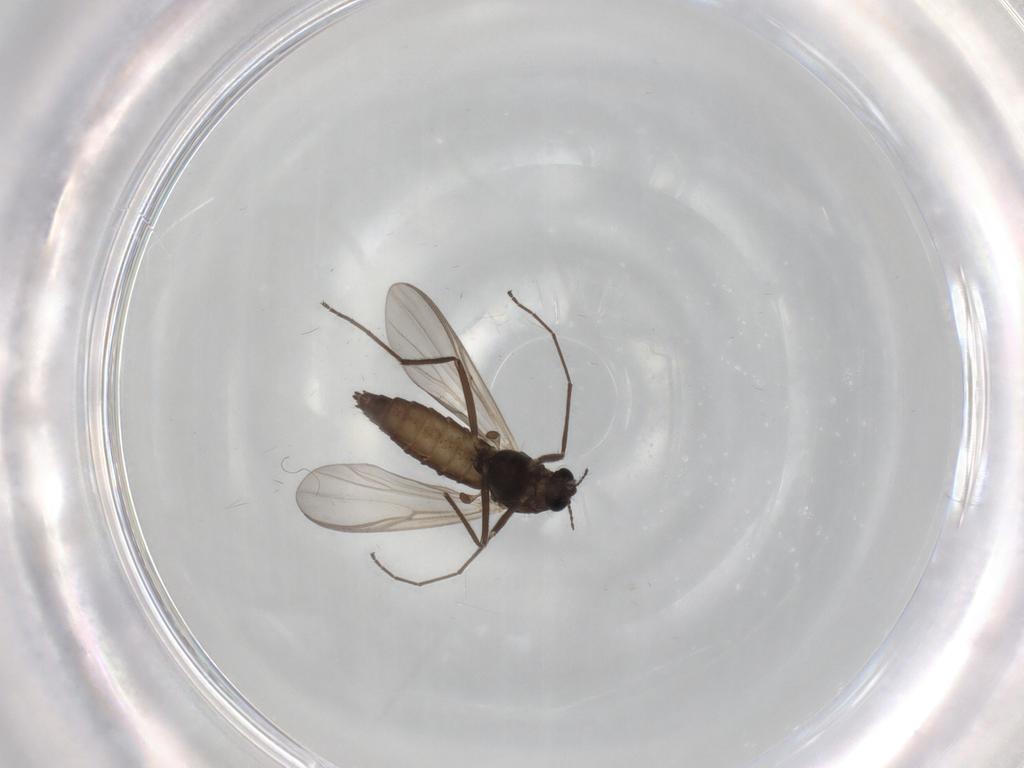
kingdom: Animalia
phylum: Arthropoda
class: Insecta
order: Diptera
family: Chironomidae
